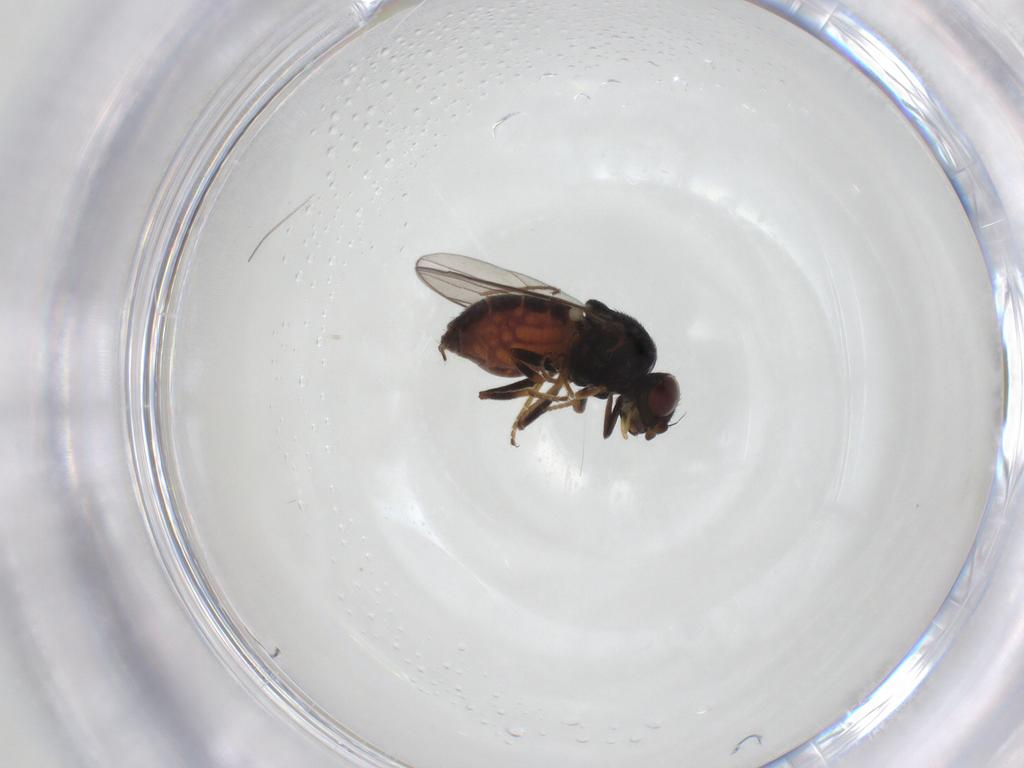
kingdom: Animalia
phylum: Arthropoda
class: Insecta
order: Diptera
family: Chloropidae
